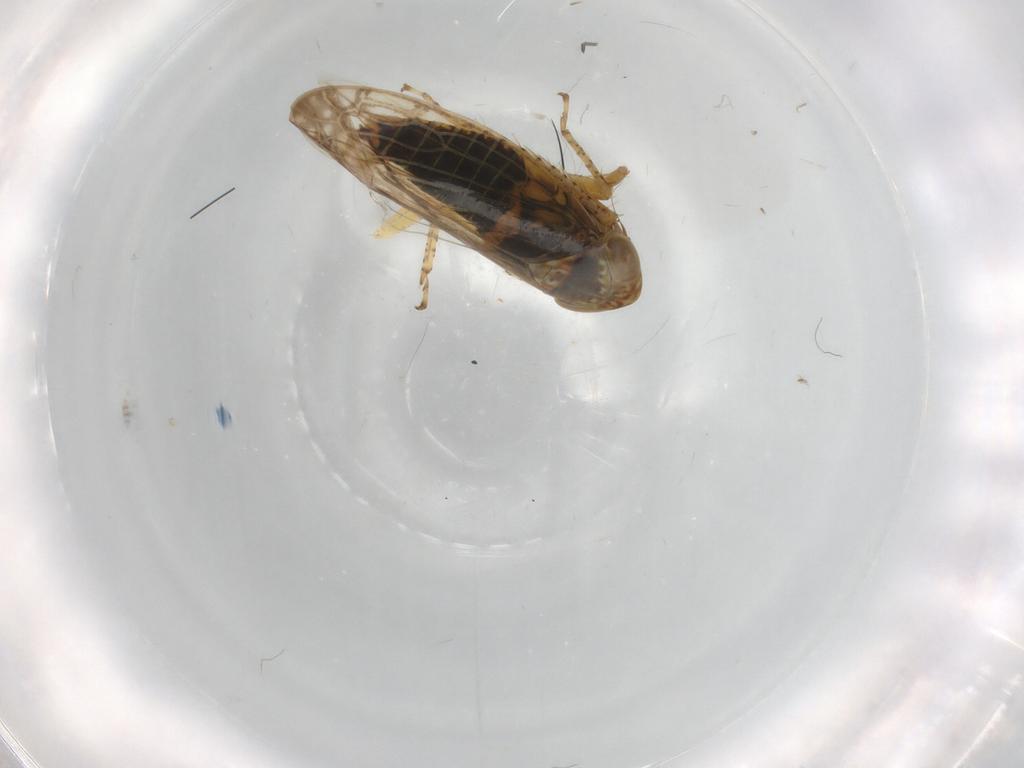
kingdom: Animalia
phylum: Arthropoda
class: Insecta
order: Hemiptera
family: Cicadellidae
